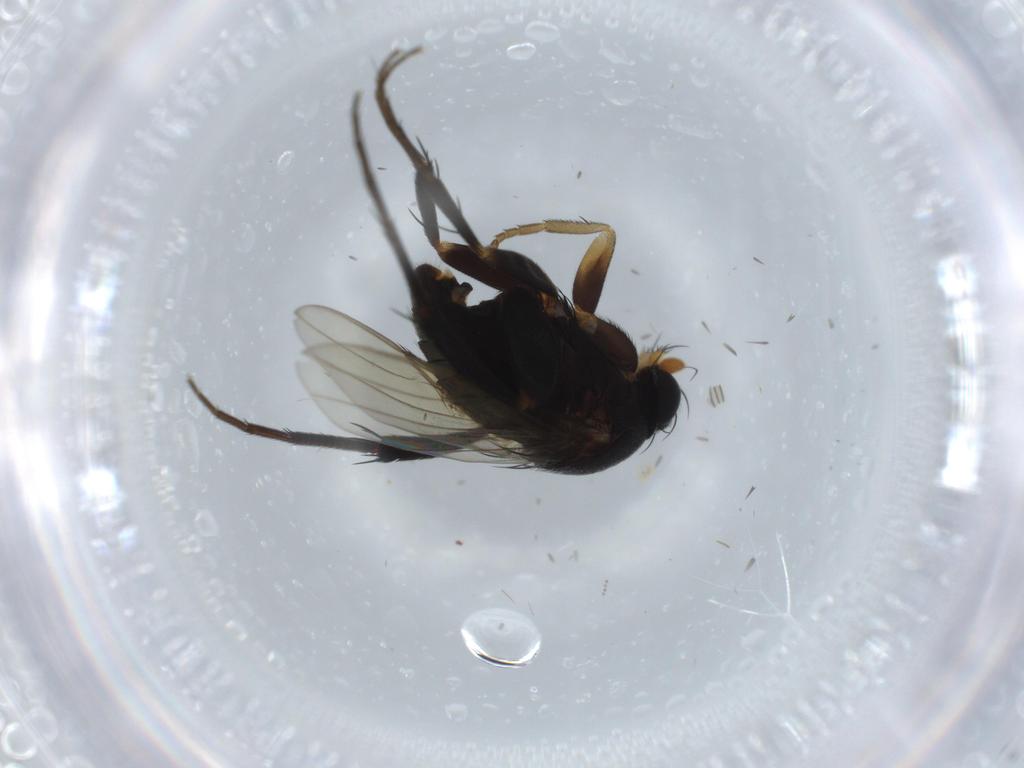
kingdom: Animalia
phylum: Arthropoda
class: Insecta
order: Diptera
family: Phoridae
